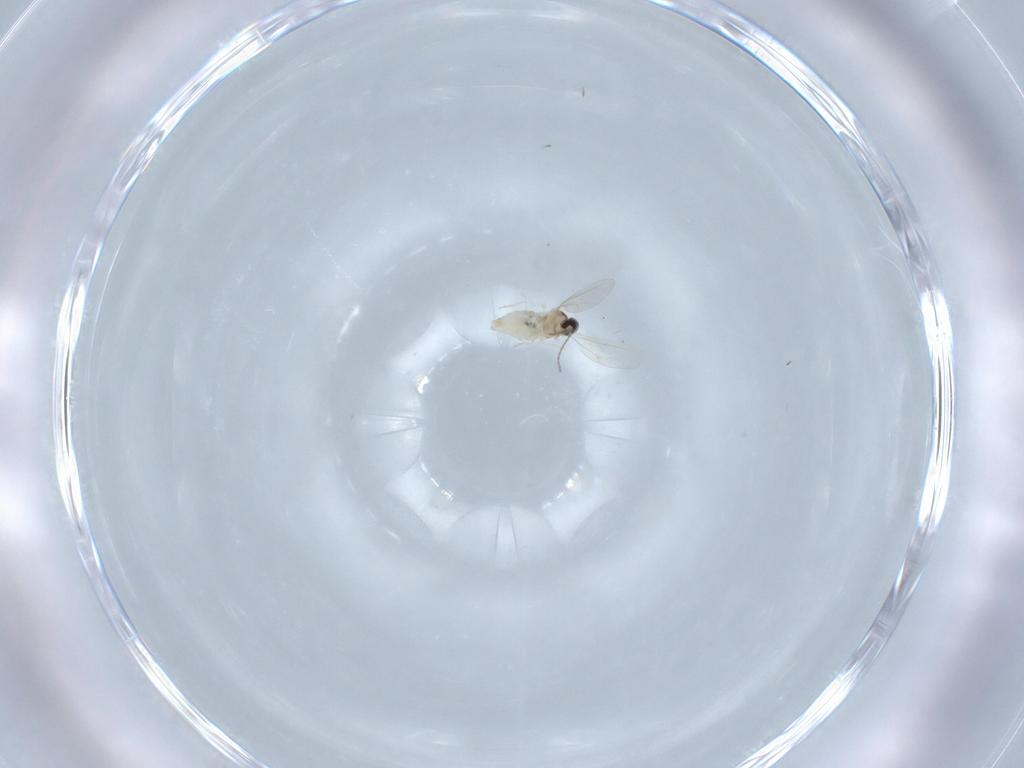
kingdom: Animalia
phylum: Arthropoda
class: Insecta
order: Diptera
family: Cecidomyiidae
